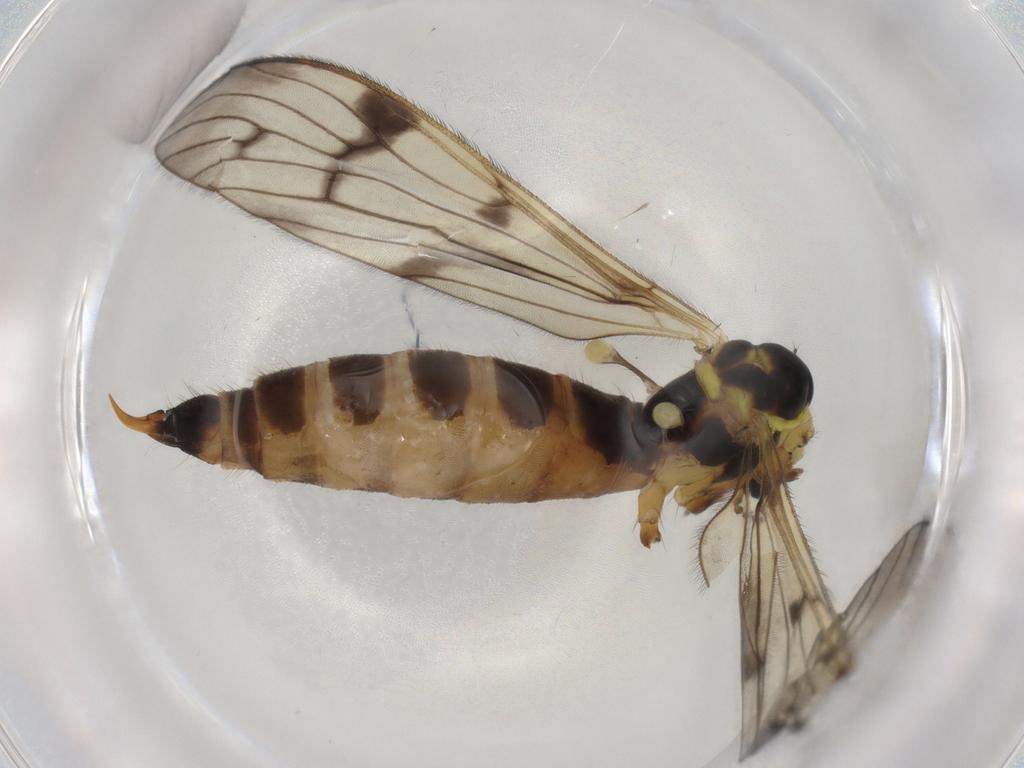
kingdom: Animalia
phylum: Arthropoda
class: Insecta
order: Diptera
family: Limoniidae
